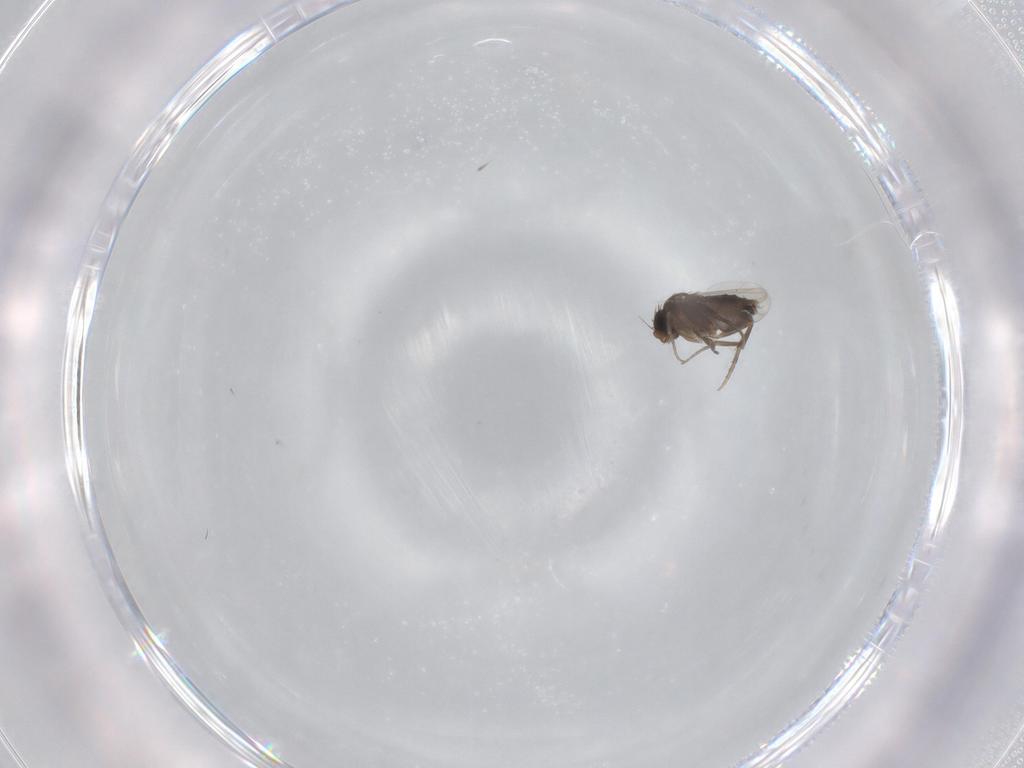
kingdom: Animalia
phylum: Arthropoda
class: Insecta
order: Diptera
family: Phoridae
